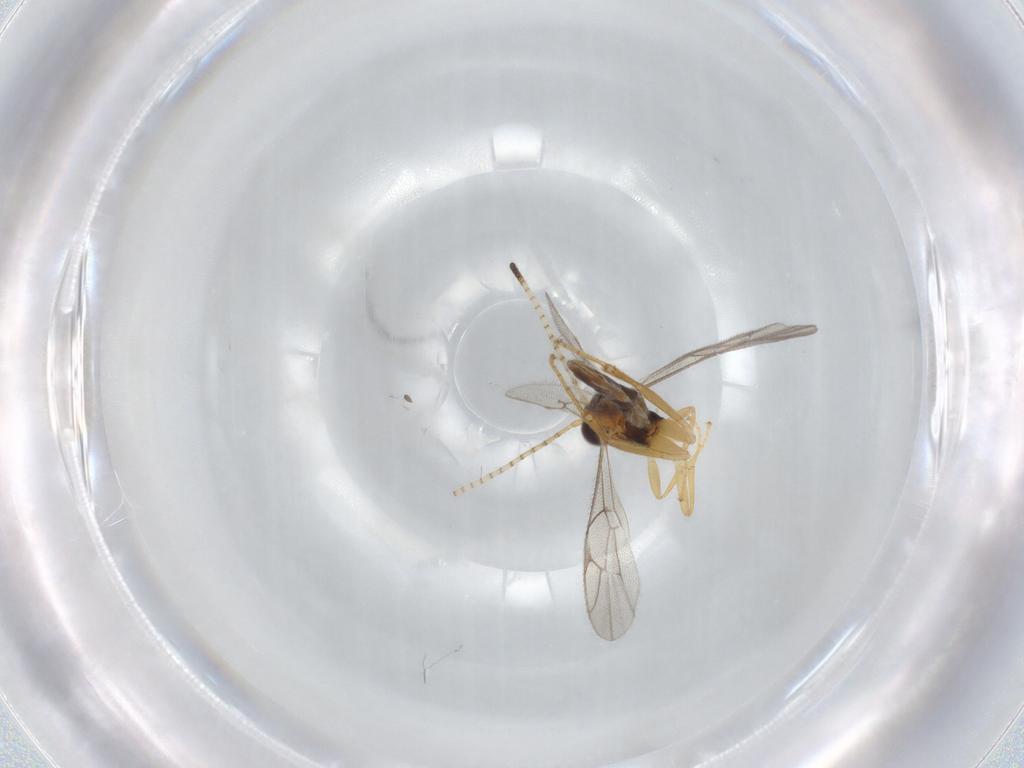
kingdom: Animalia
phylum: Arthropoda
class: Insecta
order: Hymenoptera
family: Ichneumonidae
